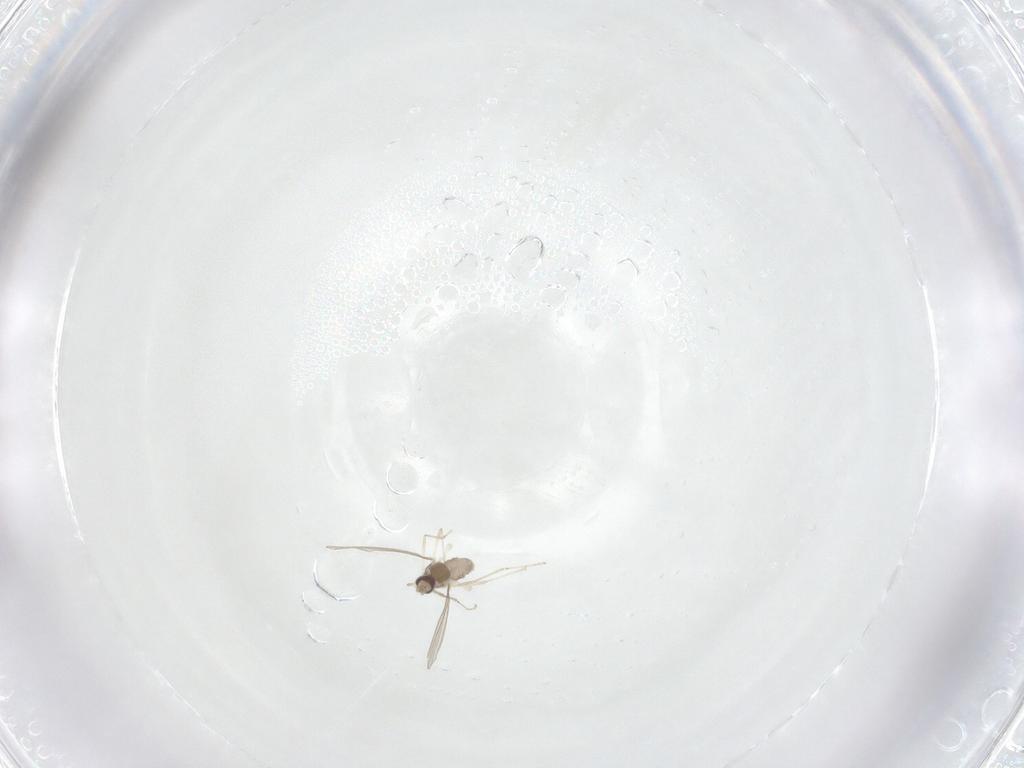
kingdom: Animalia
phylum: Arthropoda
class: Insecta
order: Diptera
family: Cecidomyiidae
